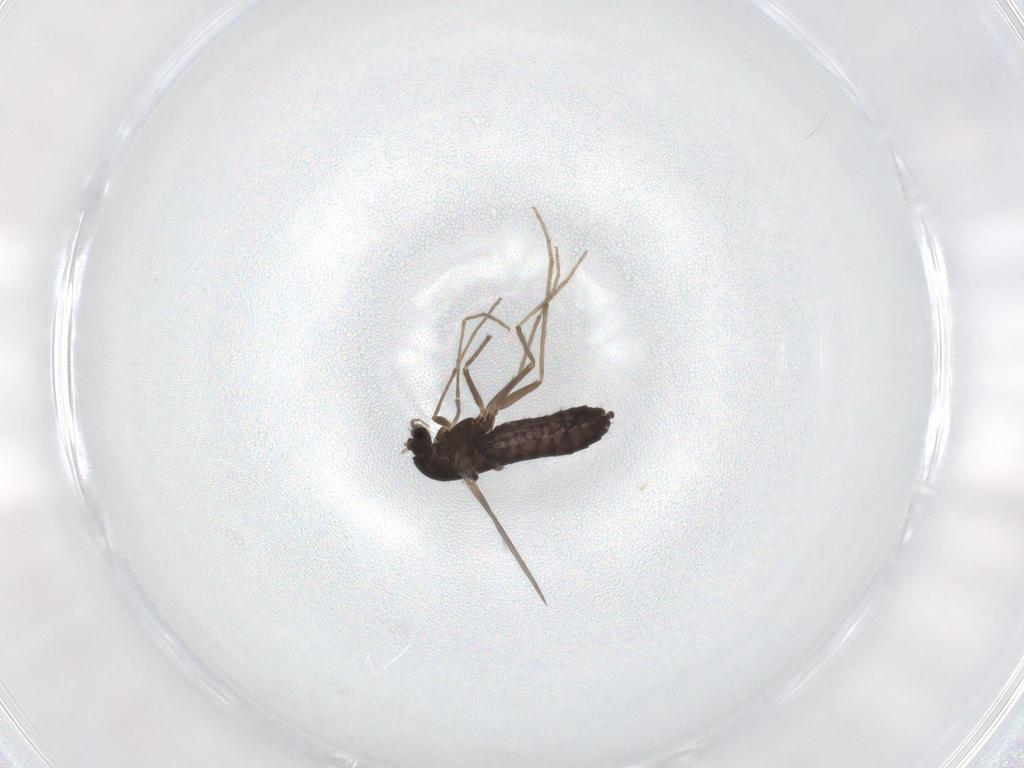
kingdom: Animalia
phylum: Arthropoda
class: Insecta
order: Diptera
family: Chironomidae
